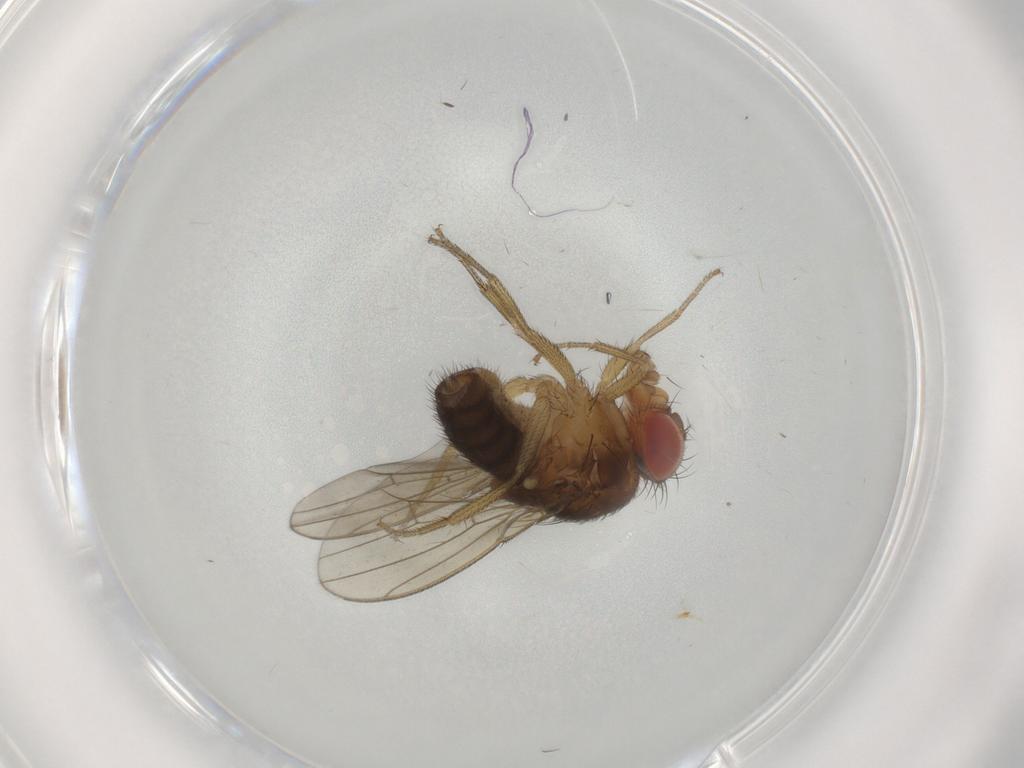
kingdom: Animalia
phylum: Arthropoda
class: Insecta
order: Diptera
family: Drosophilidae
